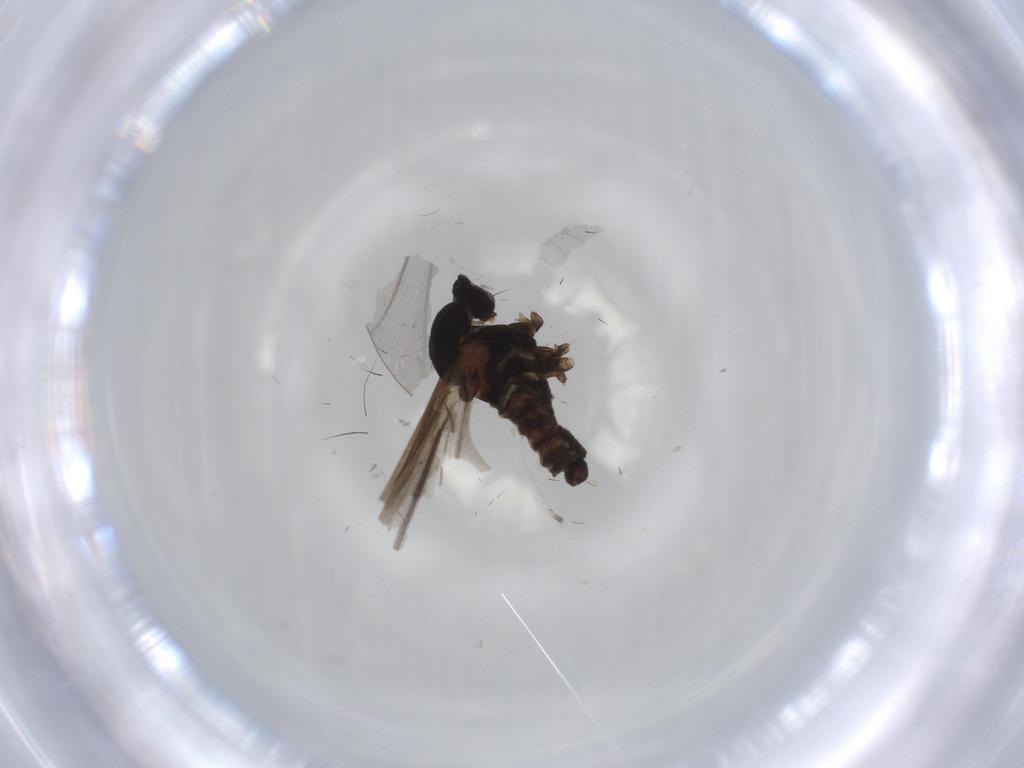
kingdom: Animalia
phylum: Arthropoda
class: Insecta
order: Diptera
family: Cecidomyiidae
